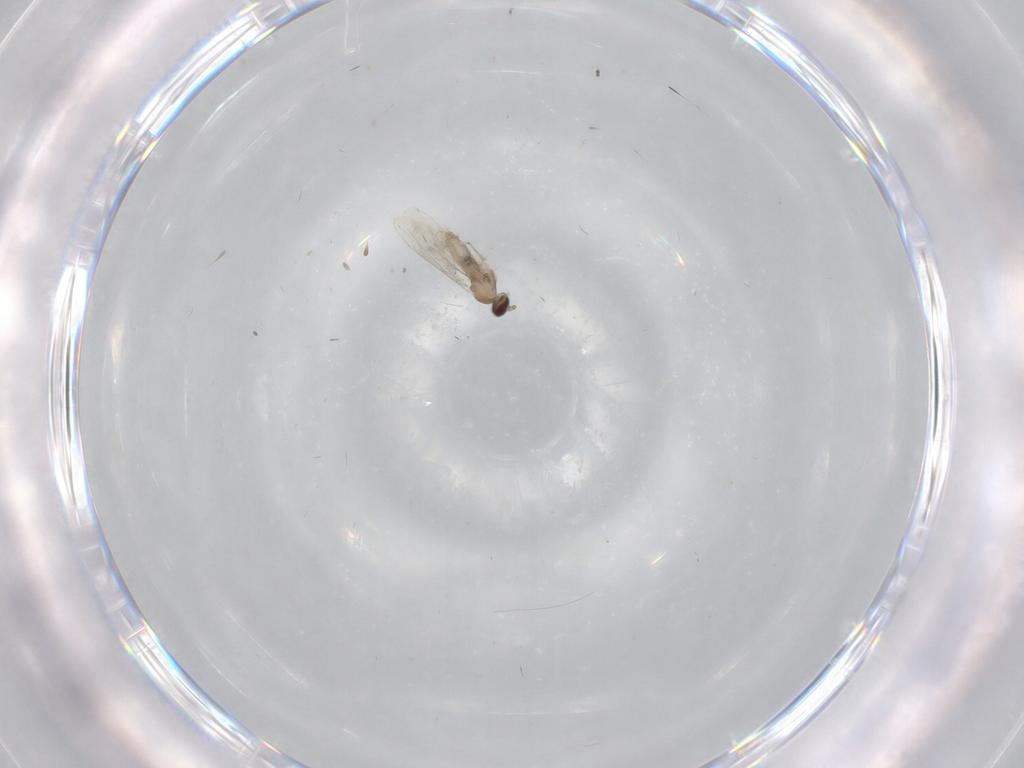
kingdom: Animalia
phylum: Arthropoda
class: Insecta
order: Diptera
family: Cecidomyiidae
